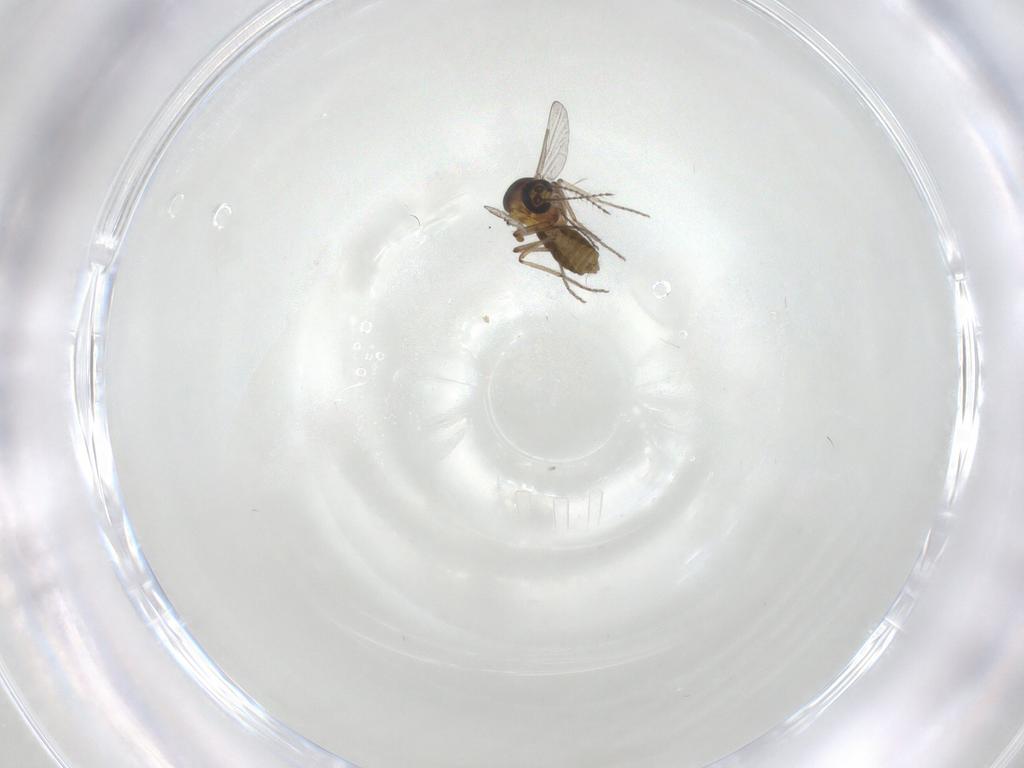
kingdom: Animalia
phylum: Arthropoda
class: Insecta
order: Diptera
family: Ceratopogonidae
